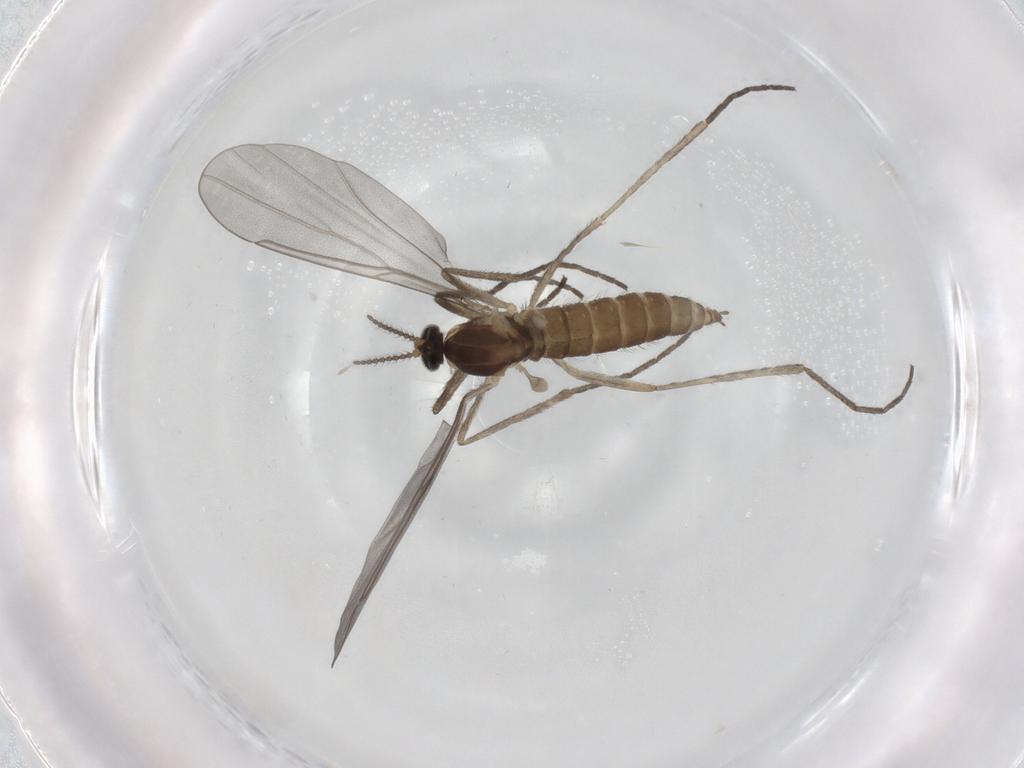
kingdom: Animalia
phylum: Arthropoda
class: Insecta
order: Diptera
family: Cecidomyiidae
